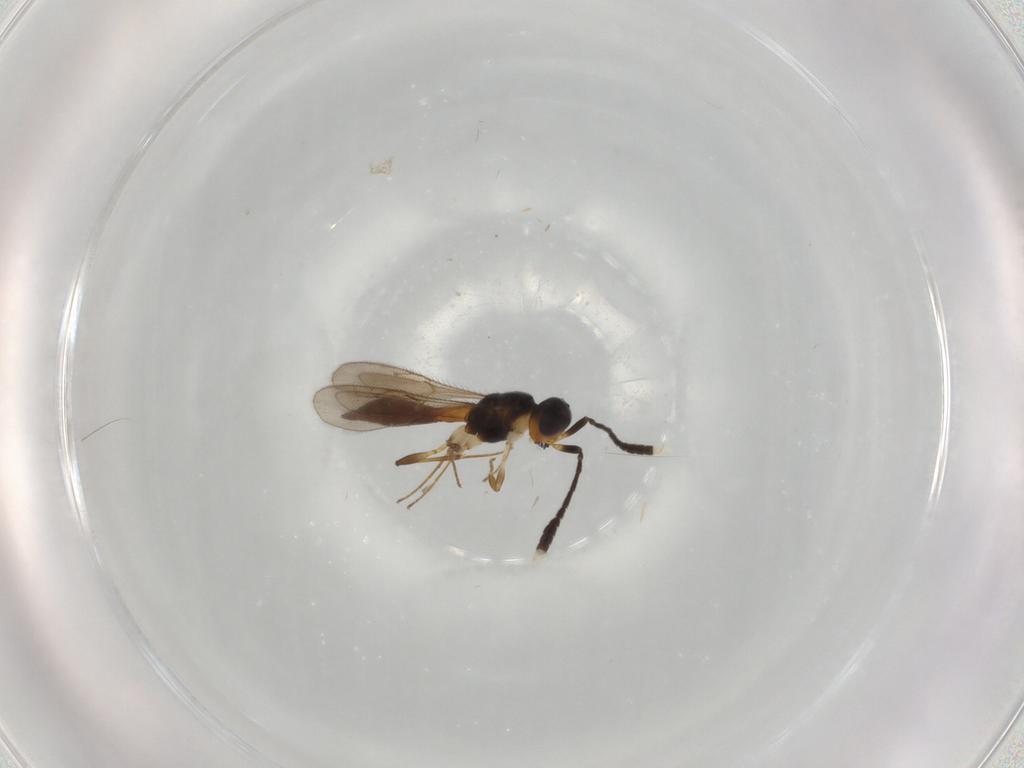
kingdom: Animalia
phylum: Arthropoda
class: Insecta
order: Hymenoptera
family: Scelionidae
